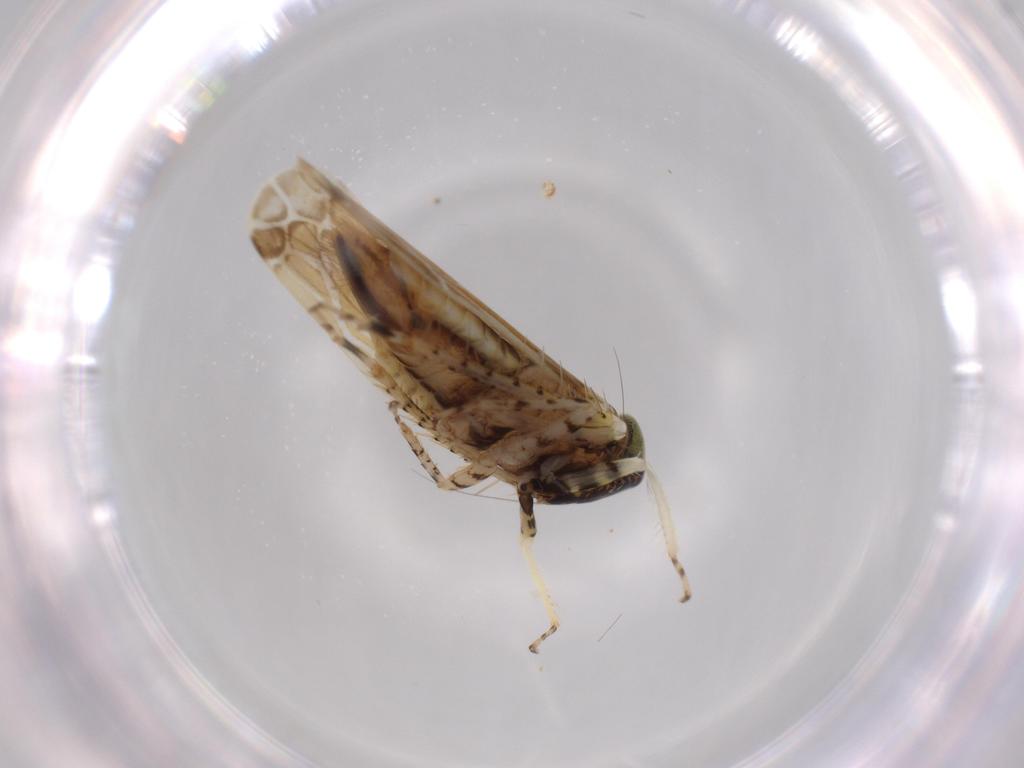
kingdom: Animalia
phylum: Arthropoda
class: Insecta
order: Hemiptera
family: Cicadellidae
